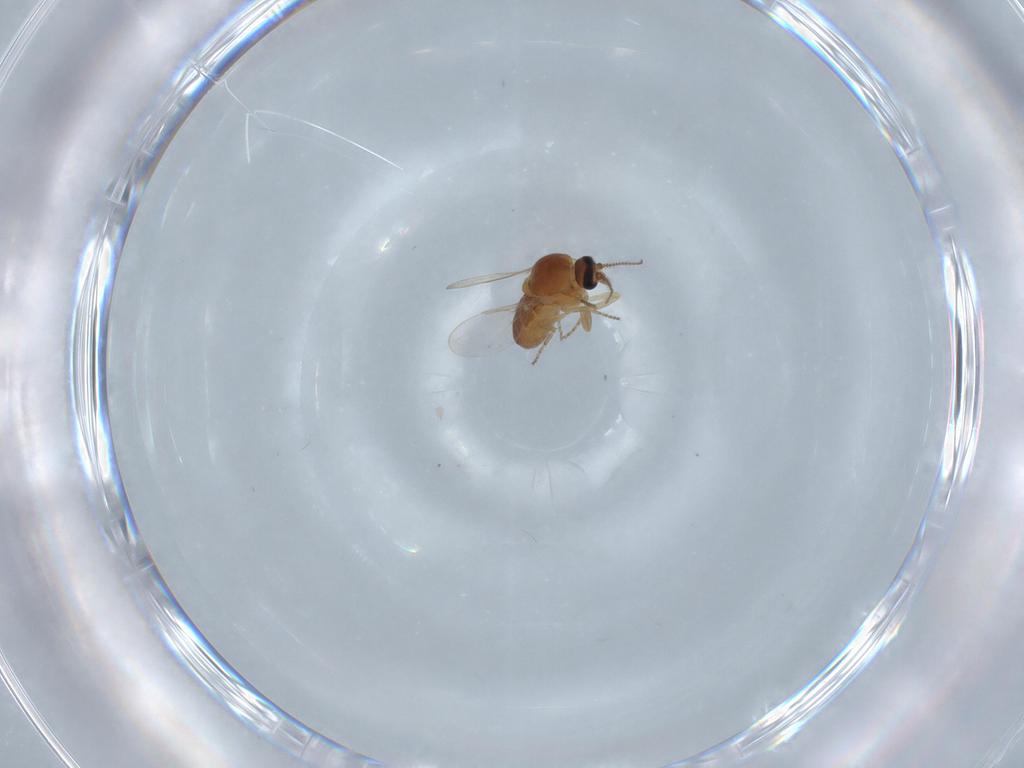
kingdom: Animalia
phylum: Arthropoda
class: Insecta
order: Diptera
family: Ceratopogonidae
